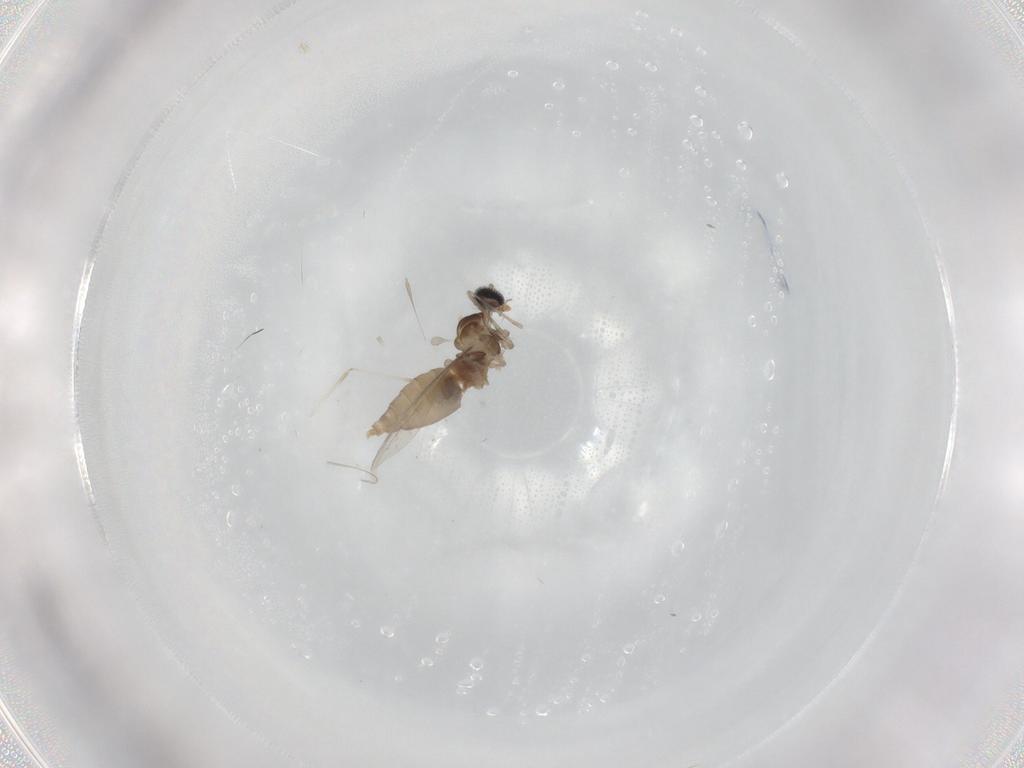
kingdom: Animalia
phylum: Arthropoda
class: Insecta
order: Diptera
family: Cecidomyiidae
